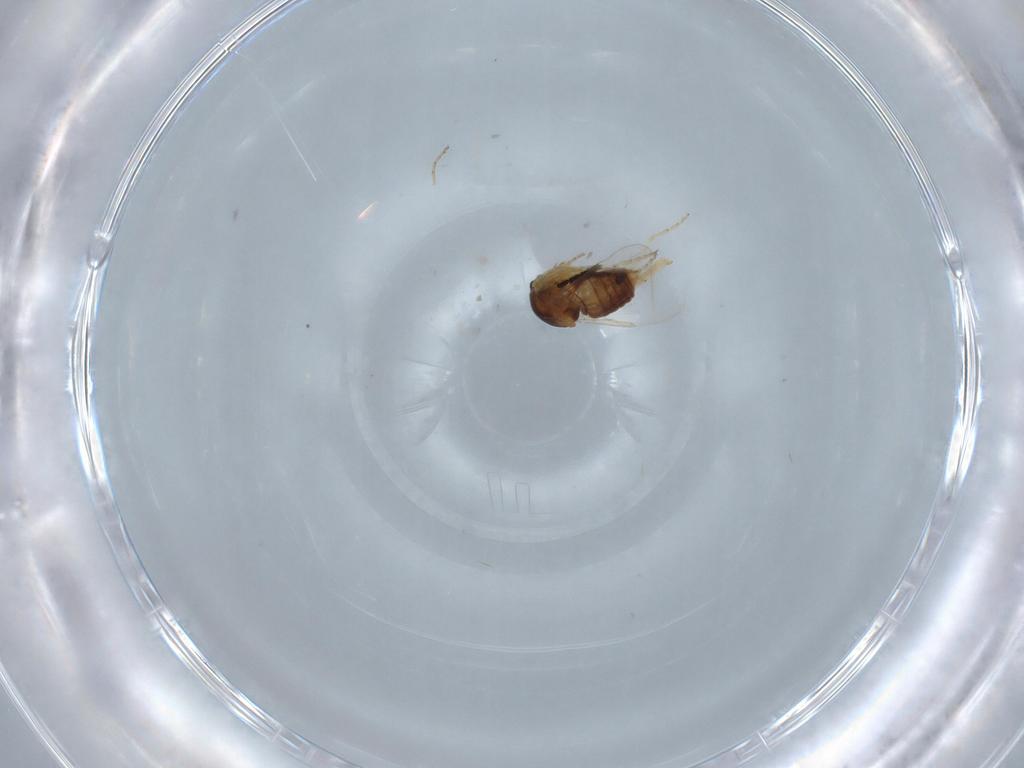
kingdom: Animalia
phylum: Arthropoda
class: Insecta
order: Diptera
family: Ceratopogonidae
